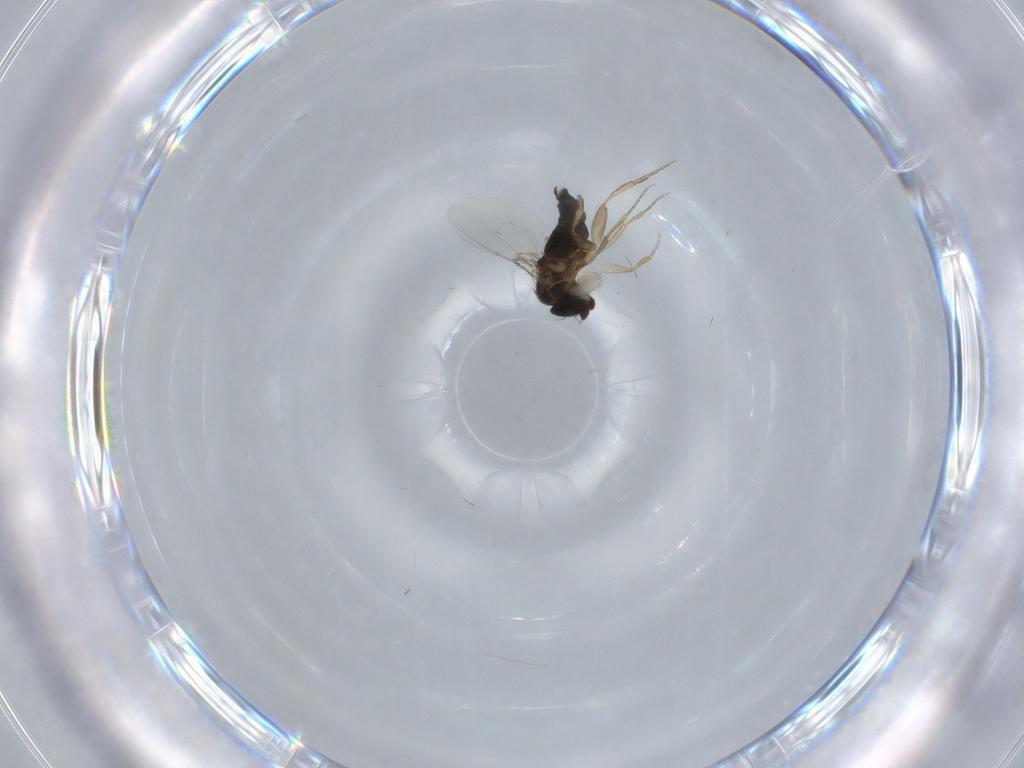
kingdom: Animalia
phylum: Arthropoda
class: Insecta
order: Diptera
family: Phoridae
